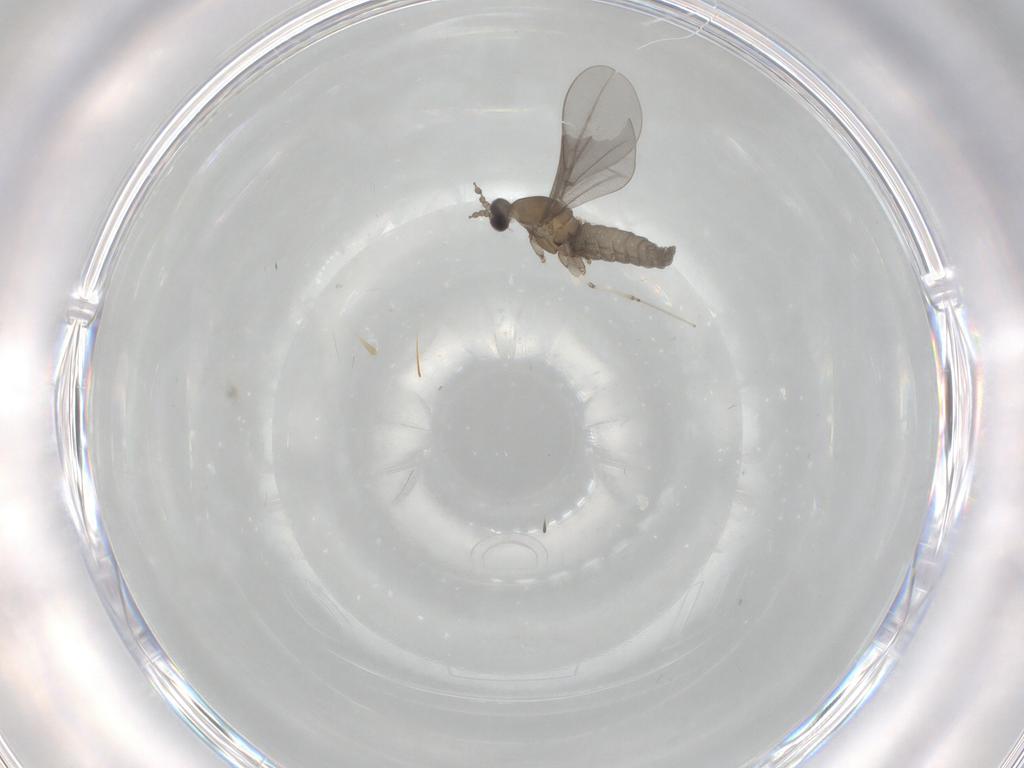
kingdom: Animalia
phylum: Arthropoda
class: Insecta
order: Diptera
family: Cecidomyiidae
